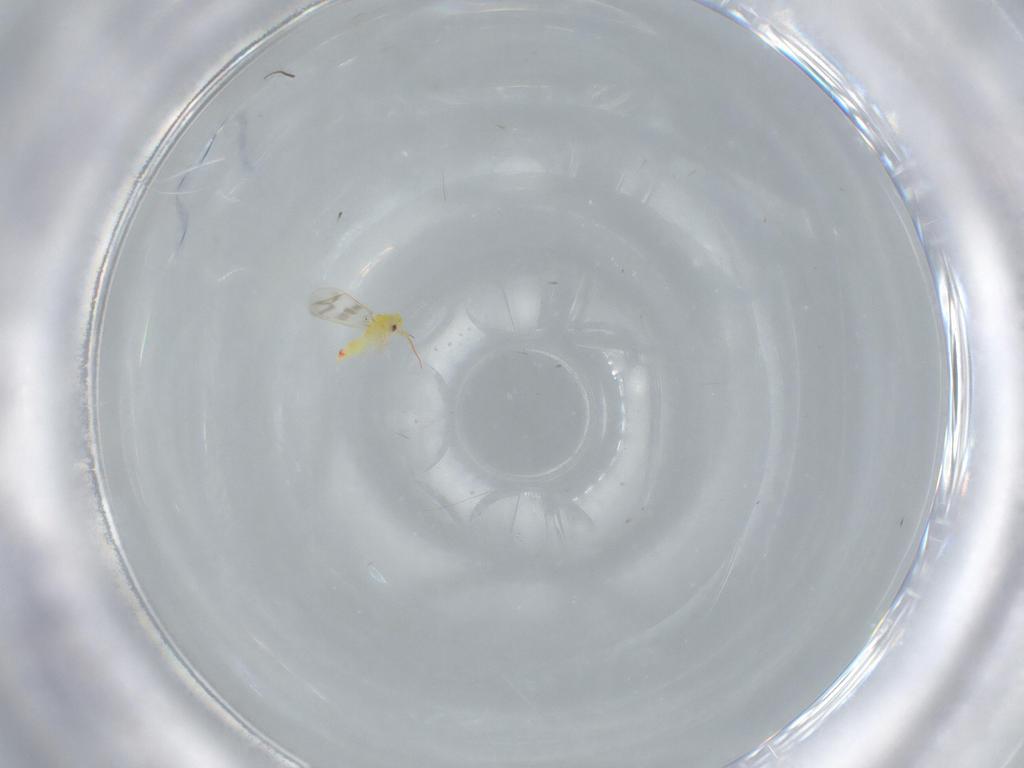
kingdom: Animalia
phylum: Arthropoda
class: Insecta
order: Hemiptera
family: Aleyrodidae
